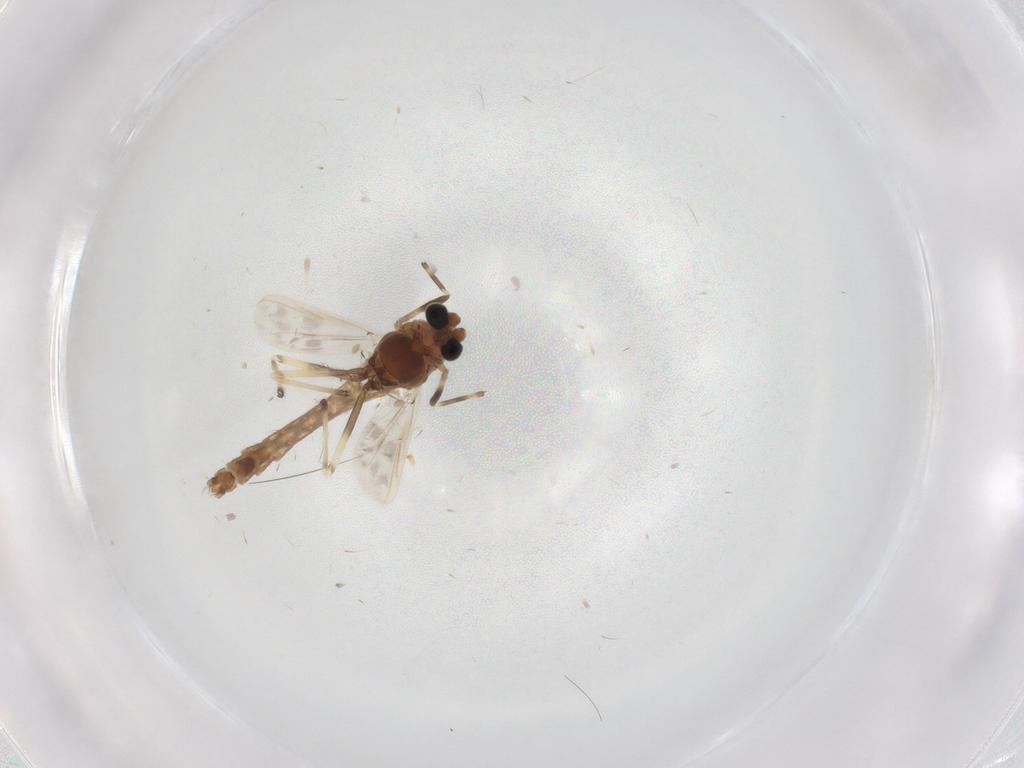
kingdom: Animalia
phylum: Arthropoda
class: Insecta
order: Diptera
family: Chironomidae
